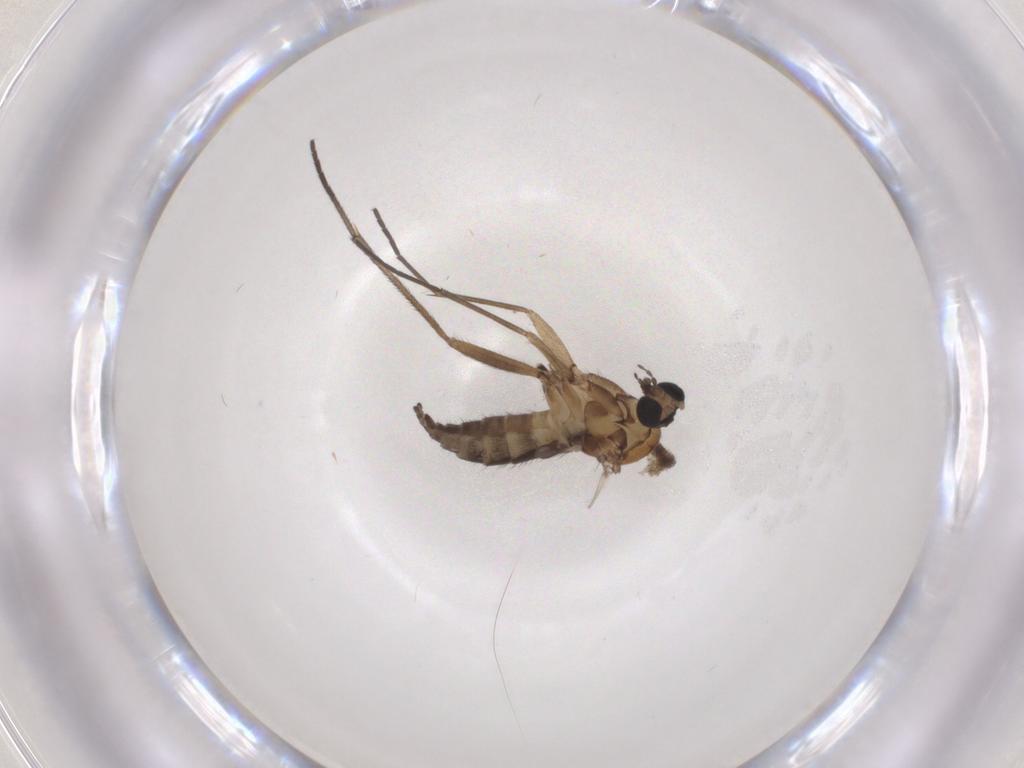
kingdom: Animalia
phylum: Arthropoda
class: Insecta
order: Diptera
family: Sciaridae
